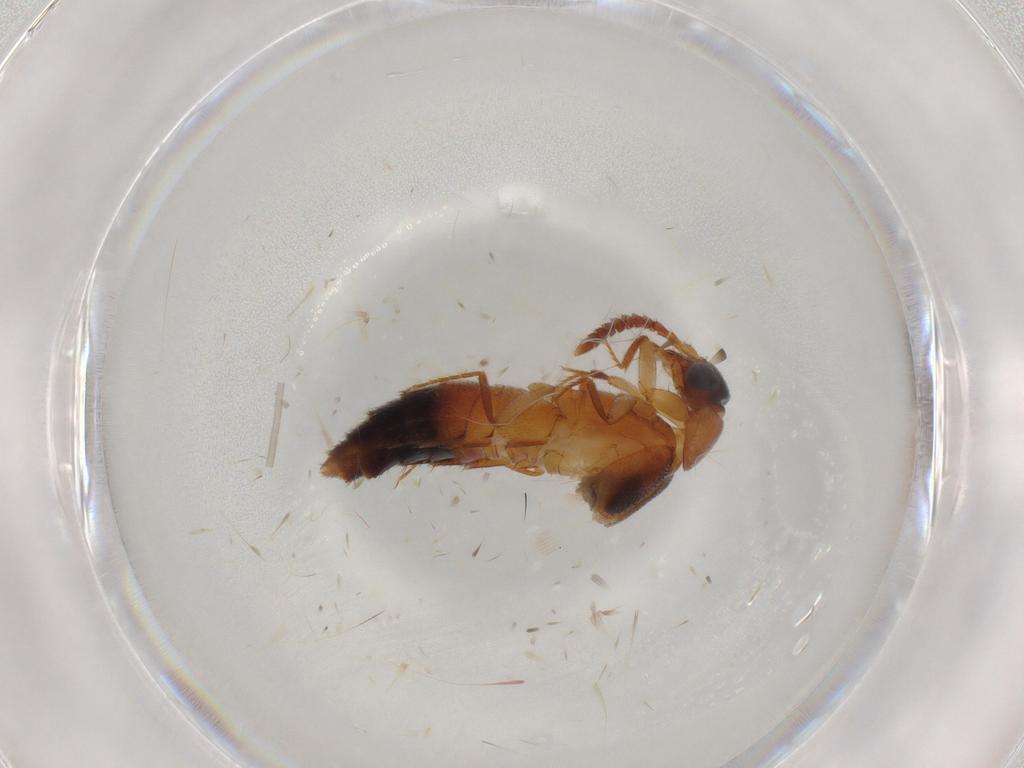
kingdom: Animalia
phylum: Arthropoda
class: Insecta
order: Coleoptera
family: Staphylinidae
